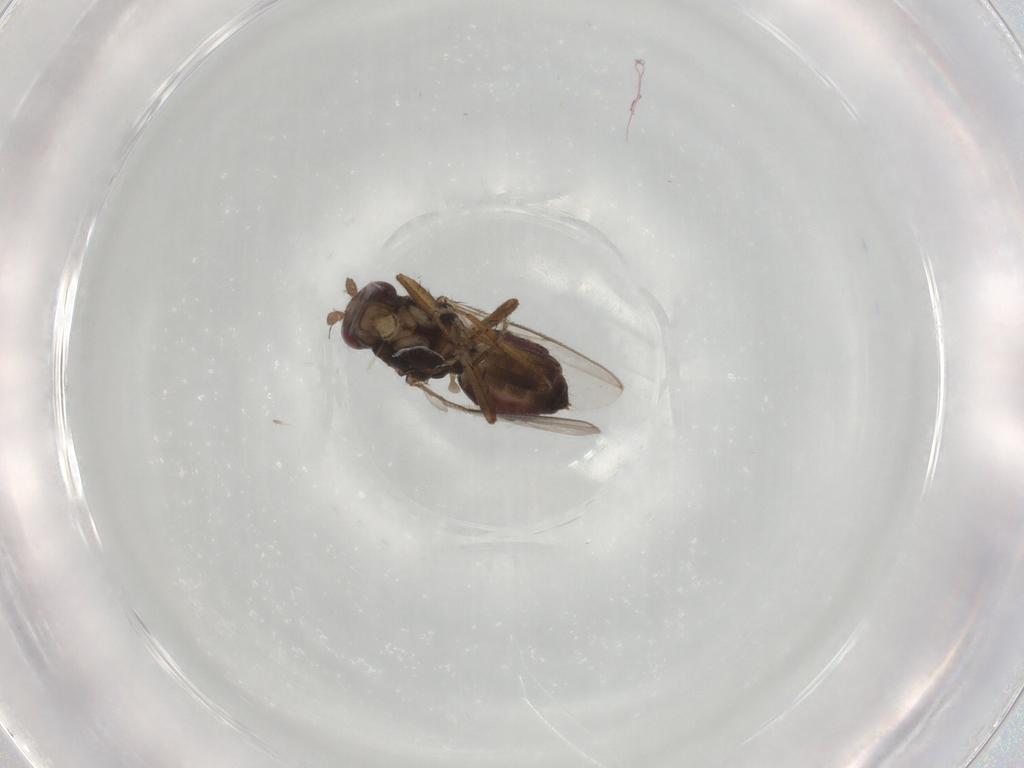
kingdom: Animalia
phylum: Arthropoda
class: Insecta
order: Diptera
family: Sphaeroceridae
